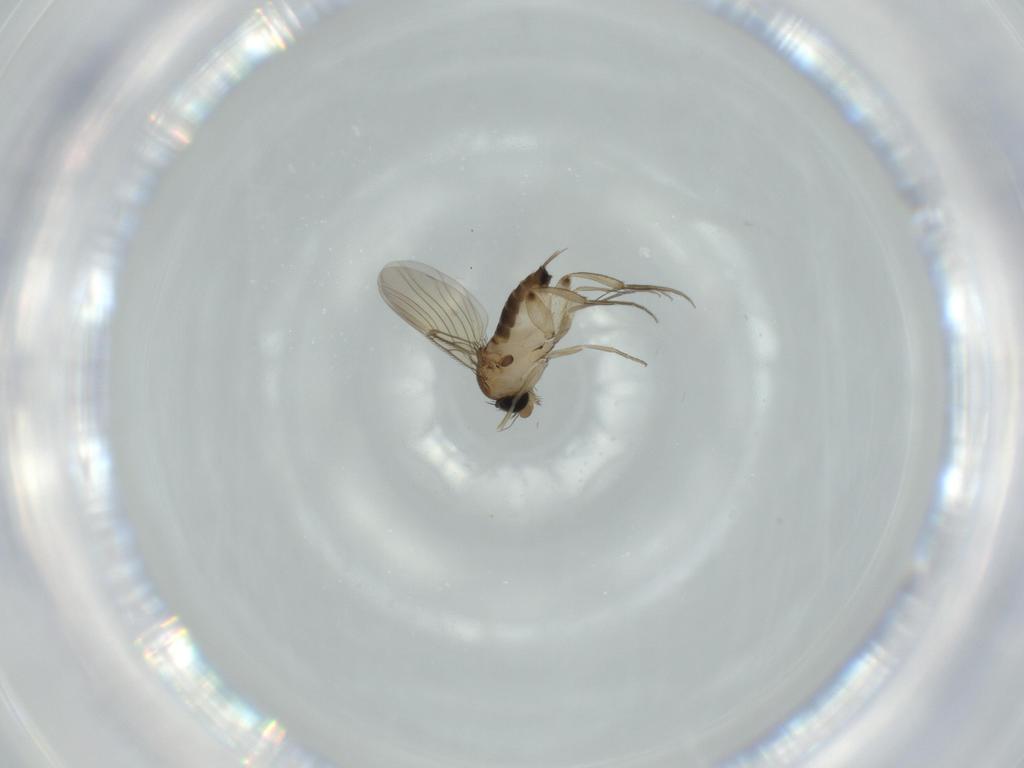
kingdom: Animalia
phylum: Arthropoda
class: Insecta
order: Diptera
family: Phoridae
